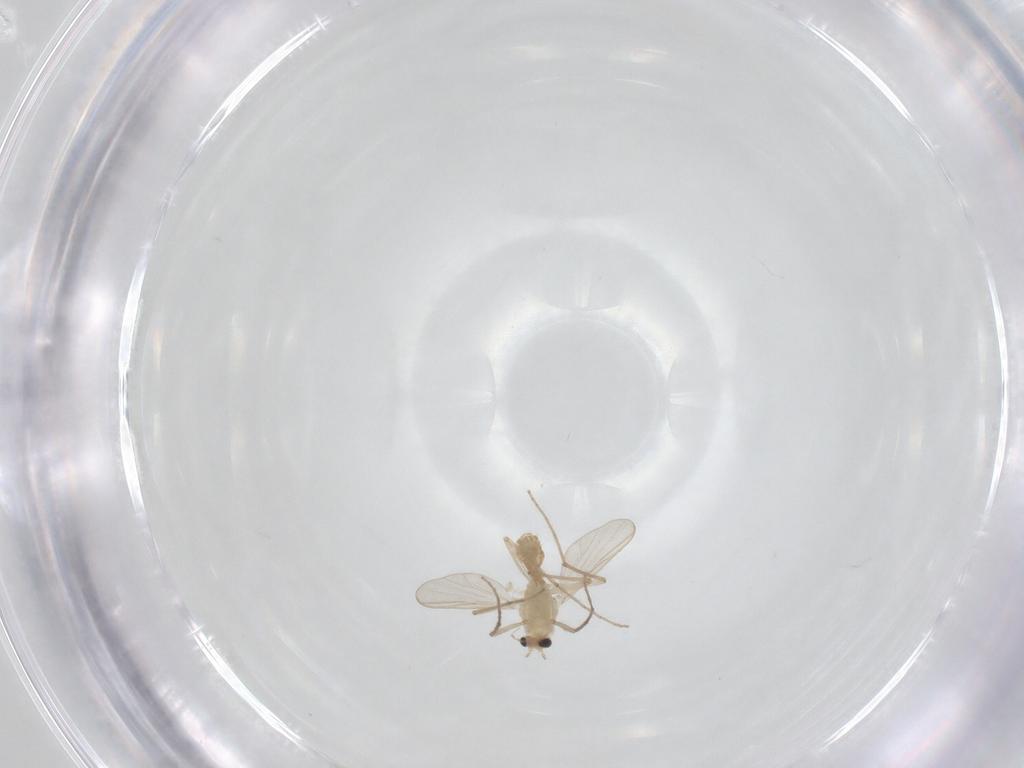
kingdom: Animalia
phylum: Arthropoda
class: Insecta
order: Diptera
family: Chironomidae
